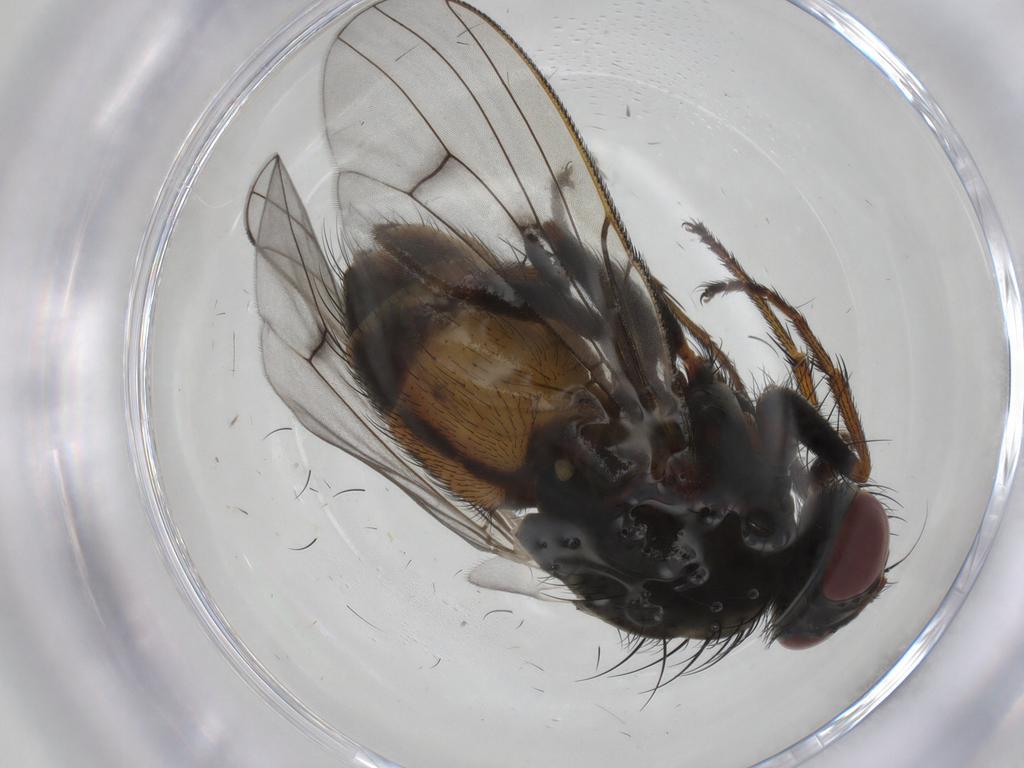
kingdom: Animalia
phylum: Arthropoda
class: Insecta
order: Diptera
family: Muscidae
